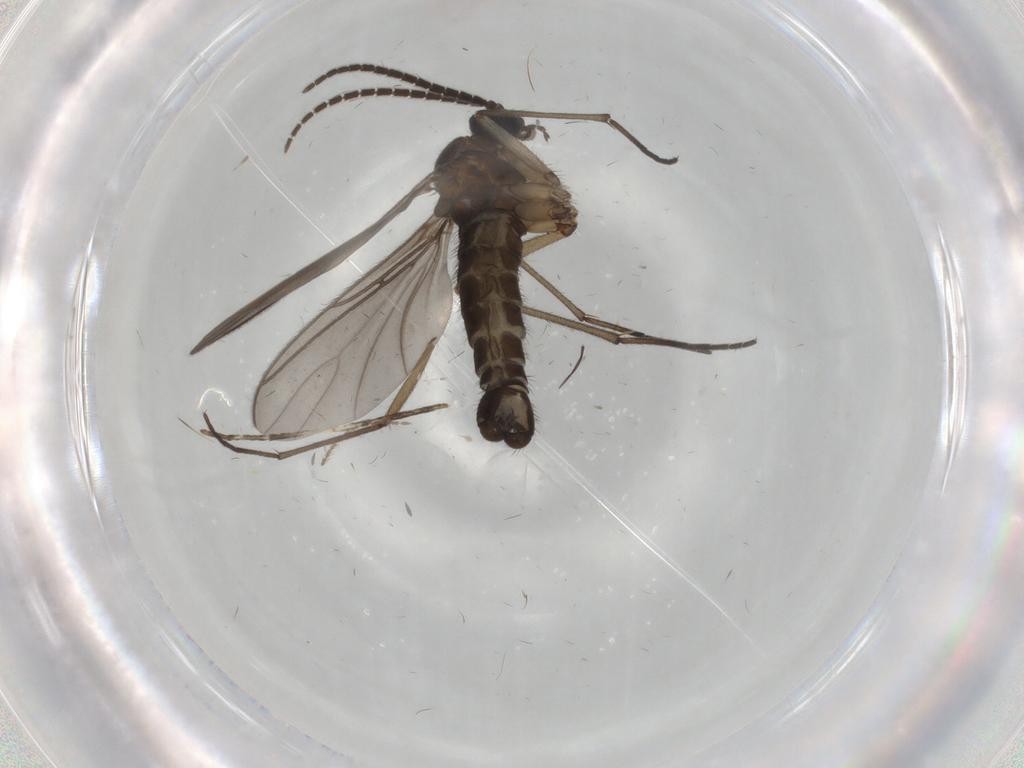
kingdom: Animalia
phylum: Arthropoda
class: Insecta
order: Diptera
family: Sciaridae
